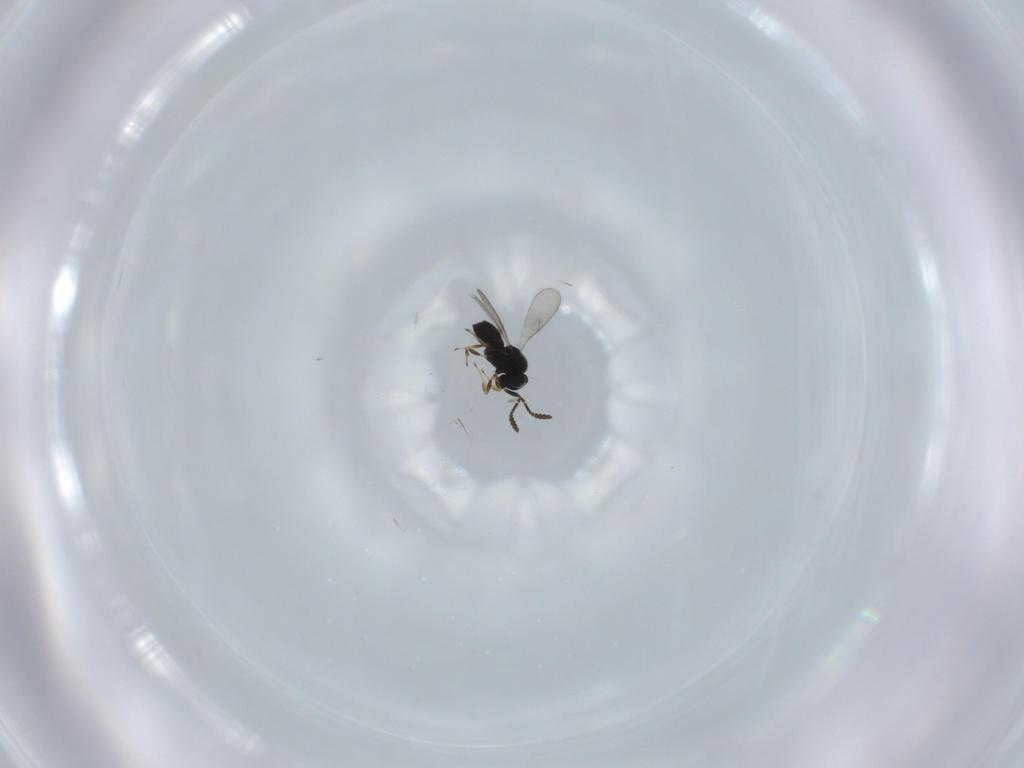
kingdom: Animalia
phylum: Arthropoda
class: Insecta
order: Hymenoptera
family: Scelionidae
